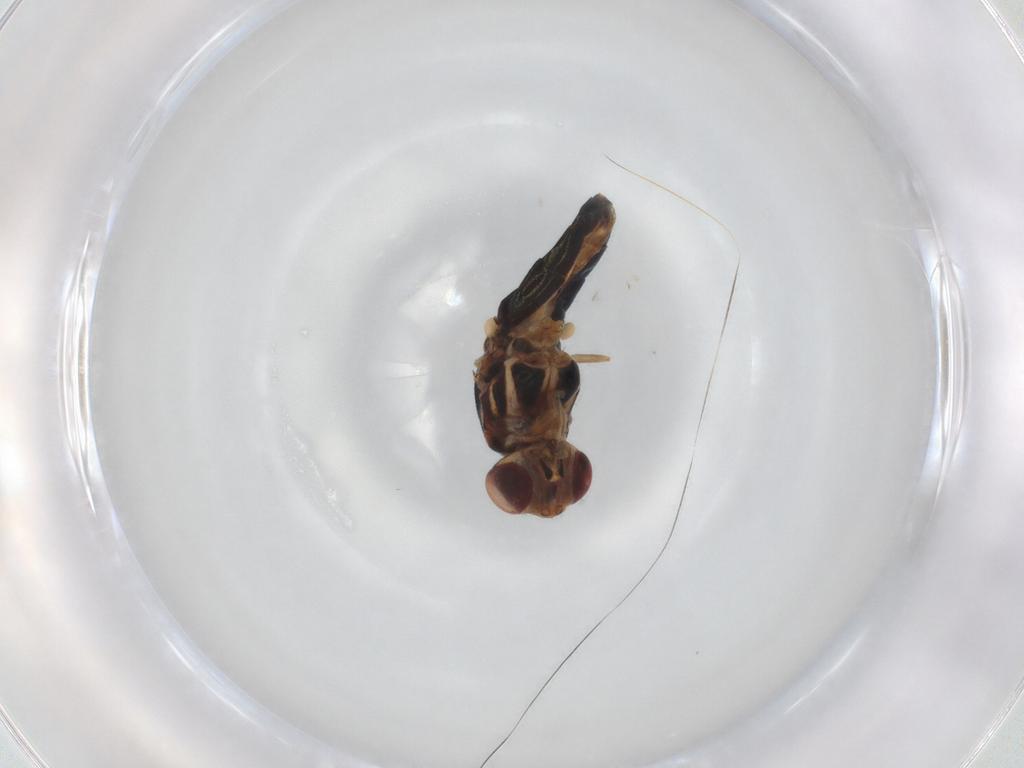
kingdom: Animalia
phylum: Arthropoda
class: Insecta
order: Diptera
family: Chloropidae
